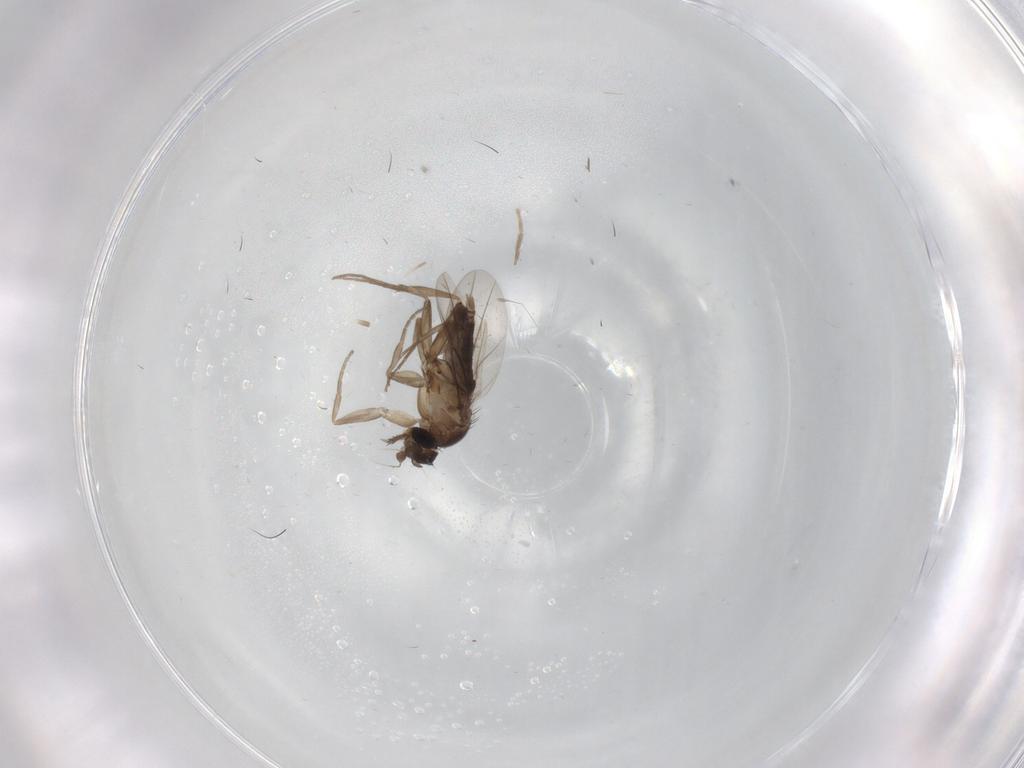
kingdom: Animalia
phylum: Arthropoda
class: Insecta
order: Diptera
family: Phoridae
